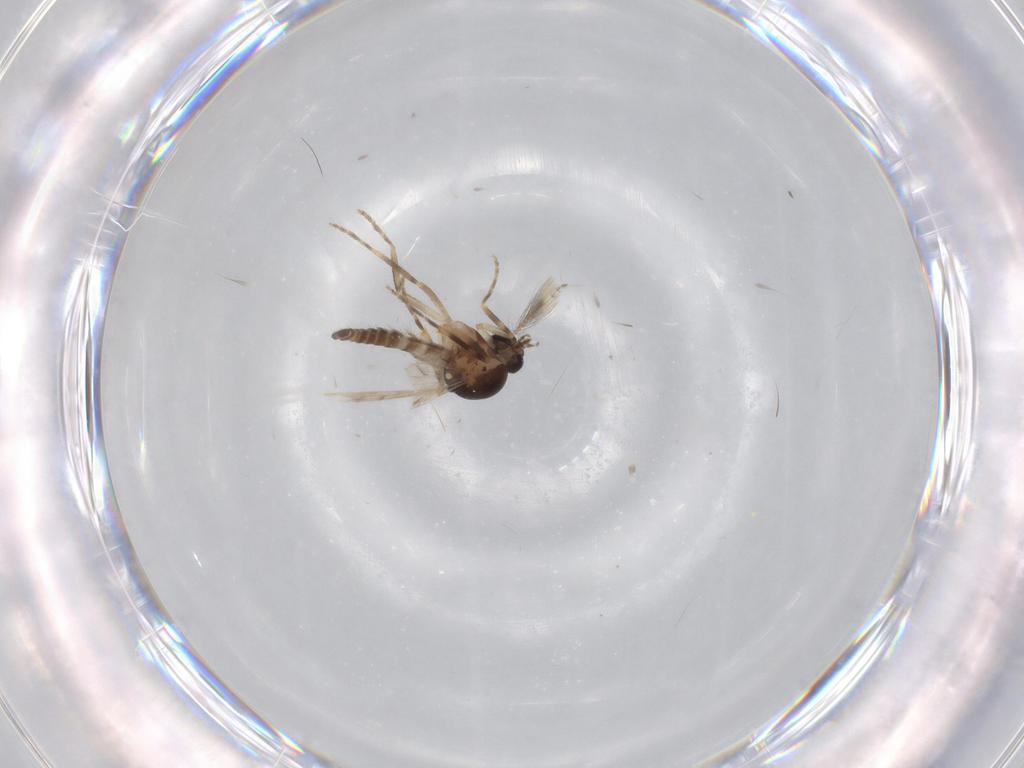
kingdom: Animalia
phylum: Arthropoda
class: Insecta
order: Diptera
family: Ceratopogonidae
